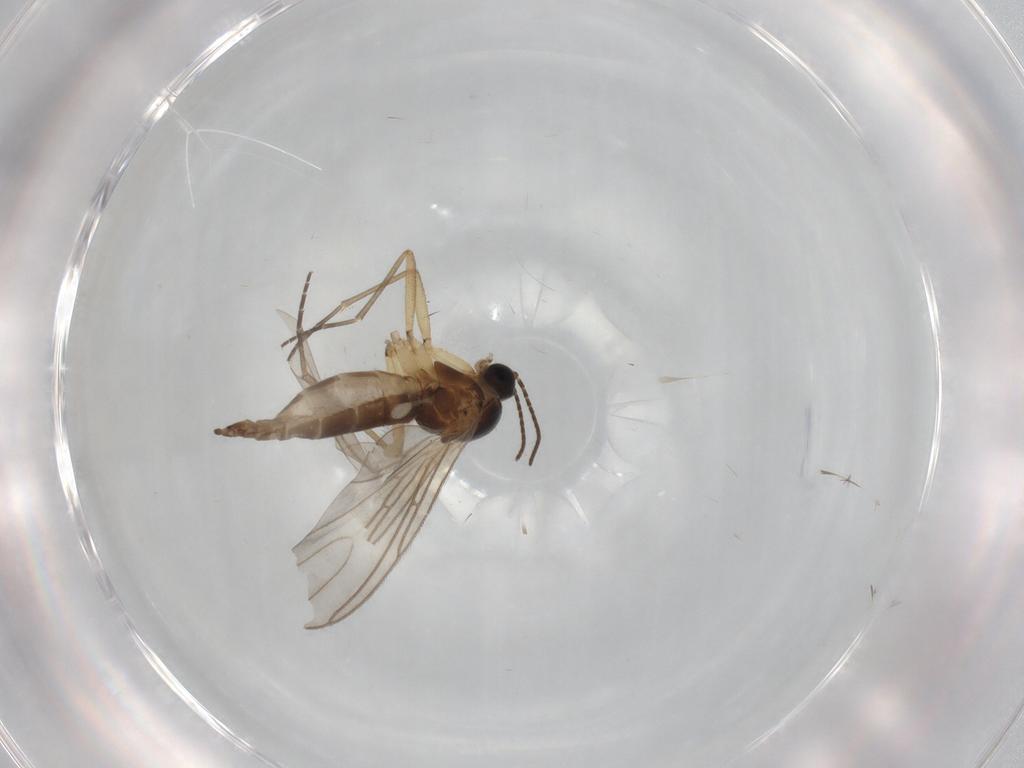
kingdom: Animalia
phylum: Arthropoda
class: Insecta
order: Diptera
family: Sciaridae
